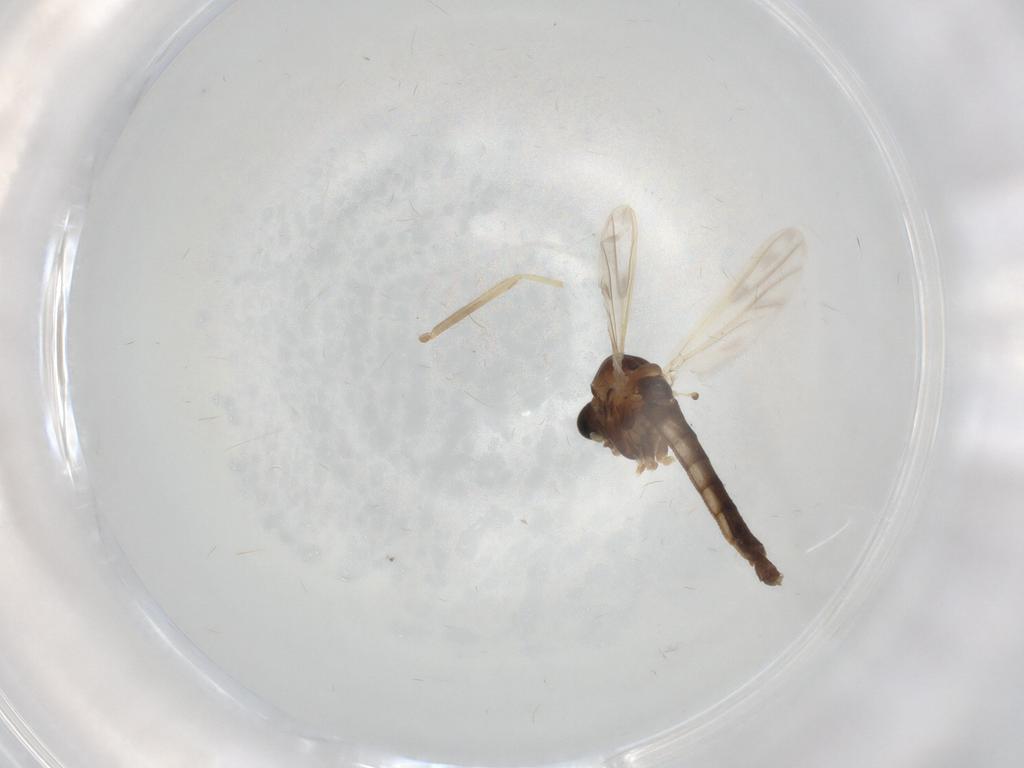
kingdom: Animalia
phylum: Arthropoda
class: Insecta
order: Diptera
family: Chironomidae
